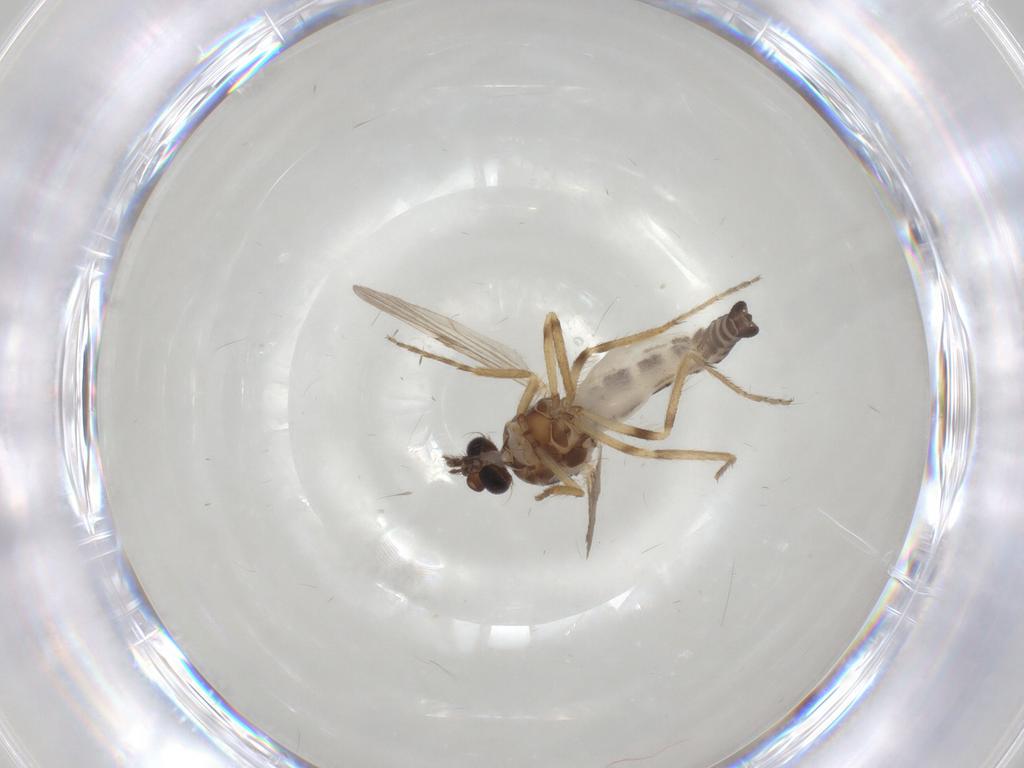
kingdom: Animalia
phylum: Arthropoda
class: Insecta
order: Diptera
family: Ceratopogonidae
